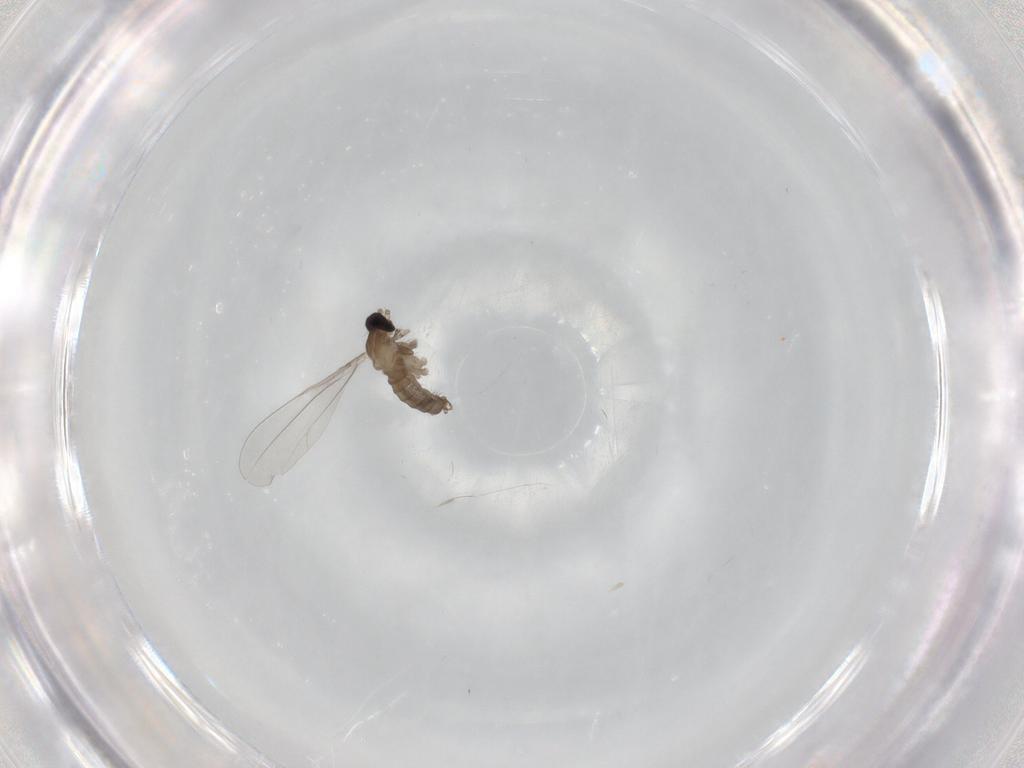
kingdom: Animalia
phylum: Arthropoda
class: Insecta
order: Diptera
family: Cecidomyiidae
